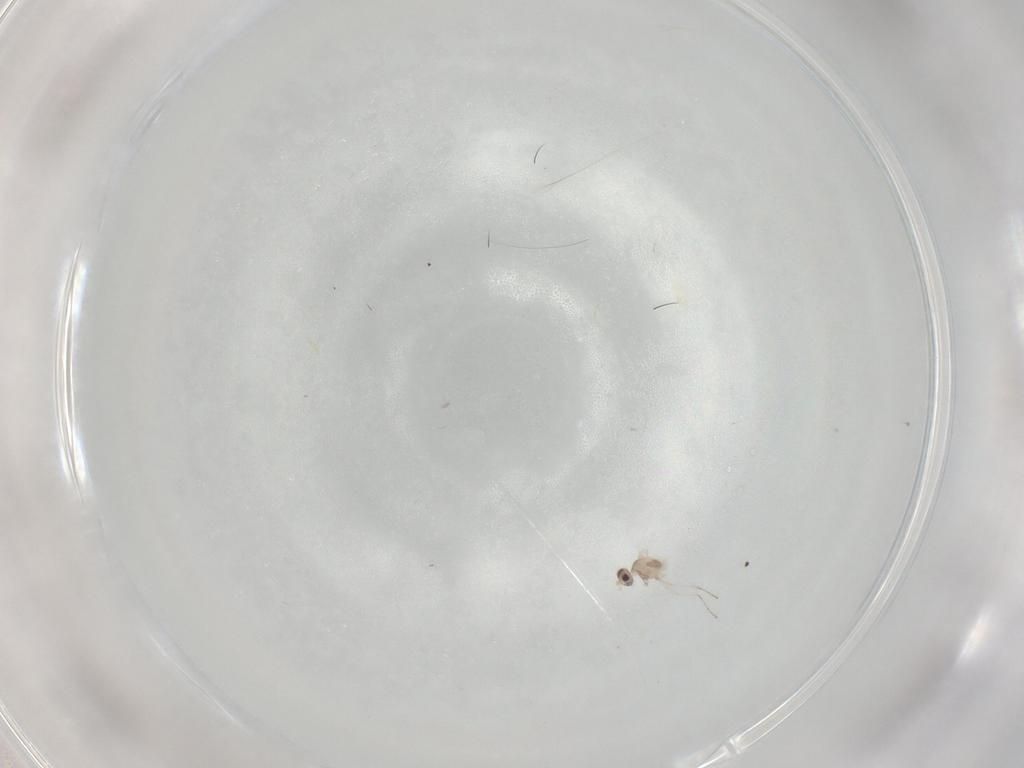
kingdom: Animalia
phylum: Arthropoda
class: Insecta
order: Diptera
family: Cecidomyiidae
